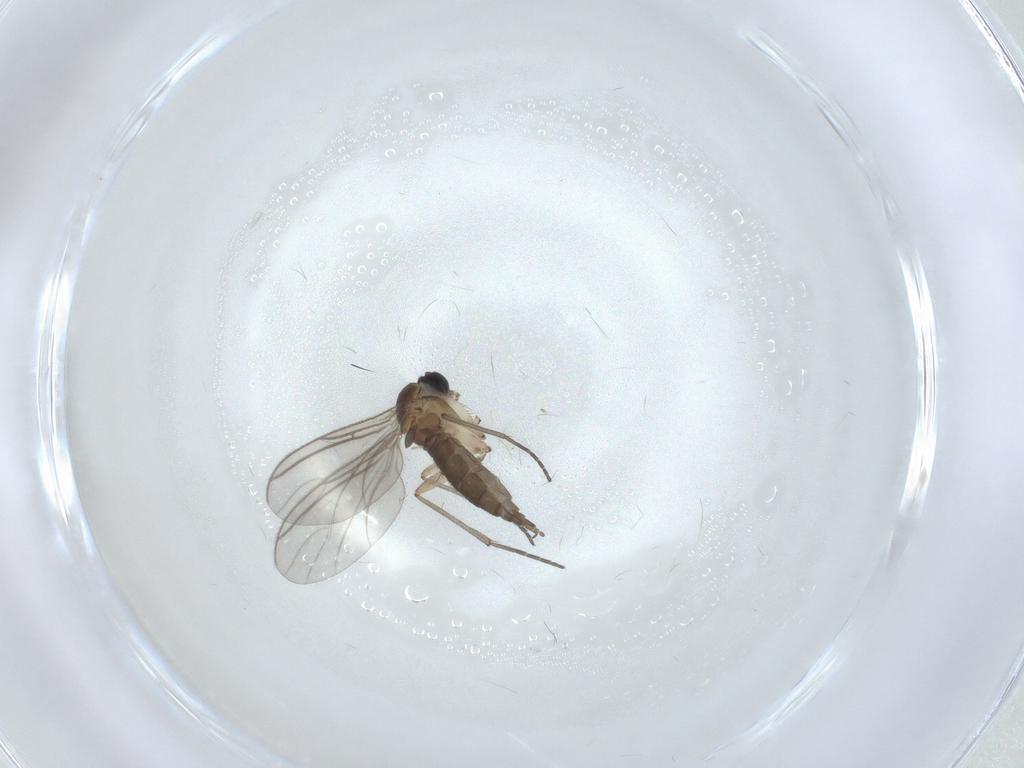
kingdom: Animalia
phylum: Arthropoda
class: Insecta
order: Diptera
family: Sciaridae
